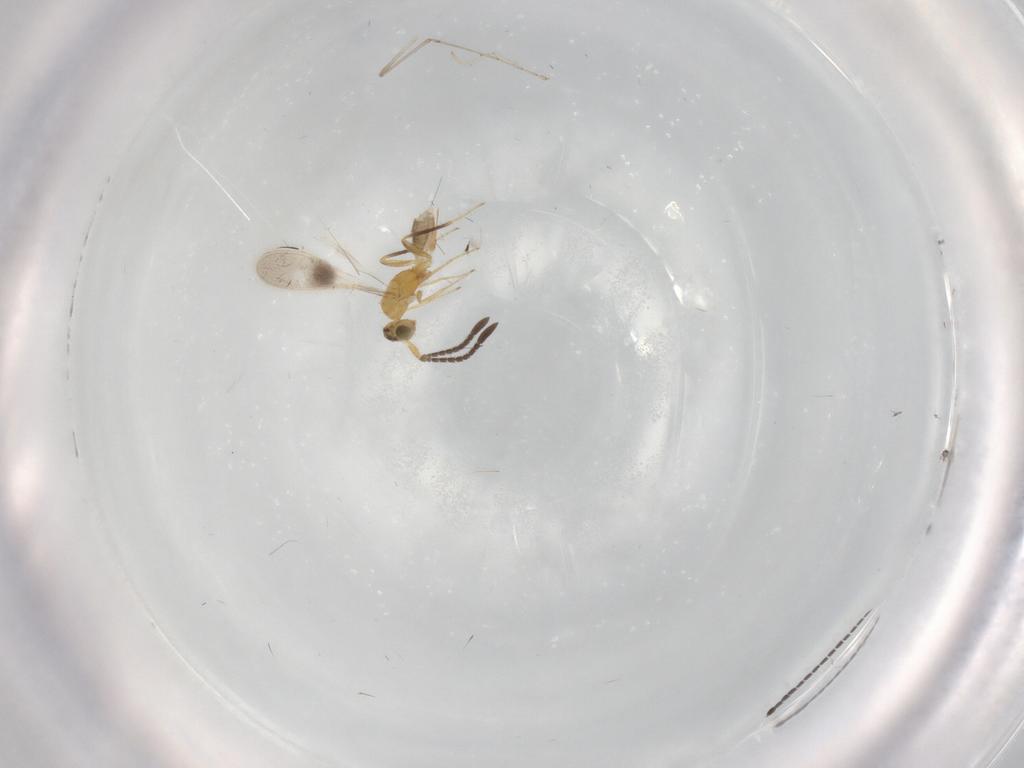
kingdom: Animalia
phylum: Arthropoda
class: Insecta
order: Hymenoptera
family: Mymaridae
